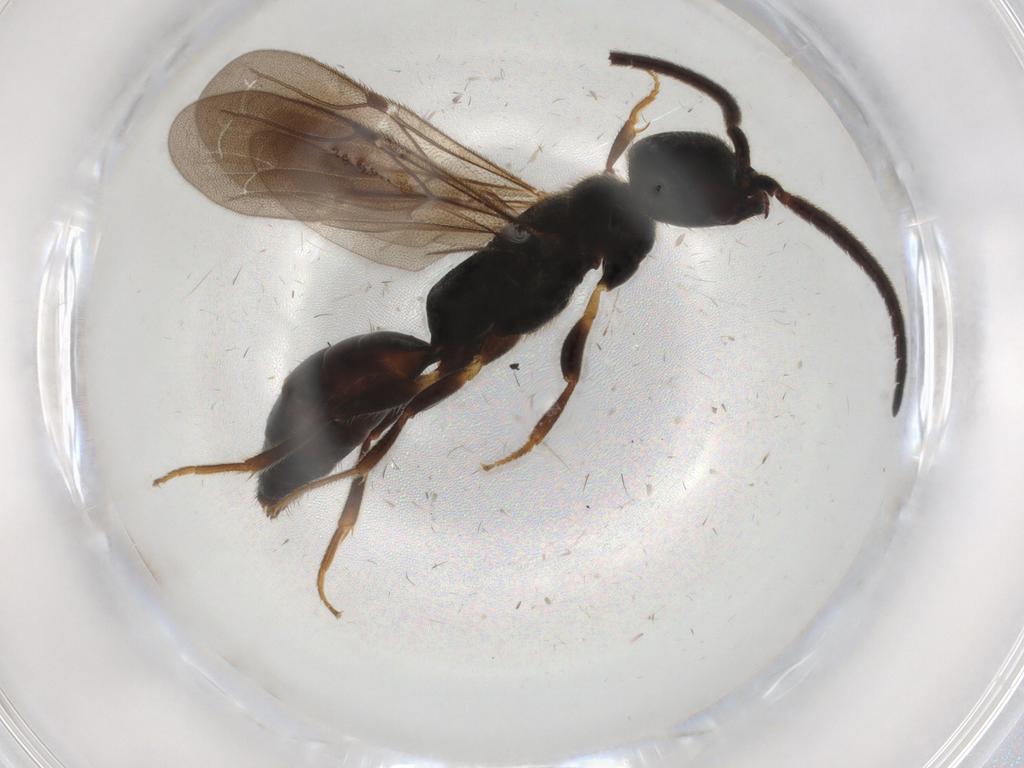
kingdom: Animalia
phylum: Arthropoda
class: Insecta
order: Hymenoptera
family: Bethylidae
